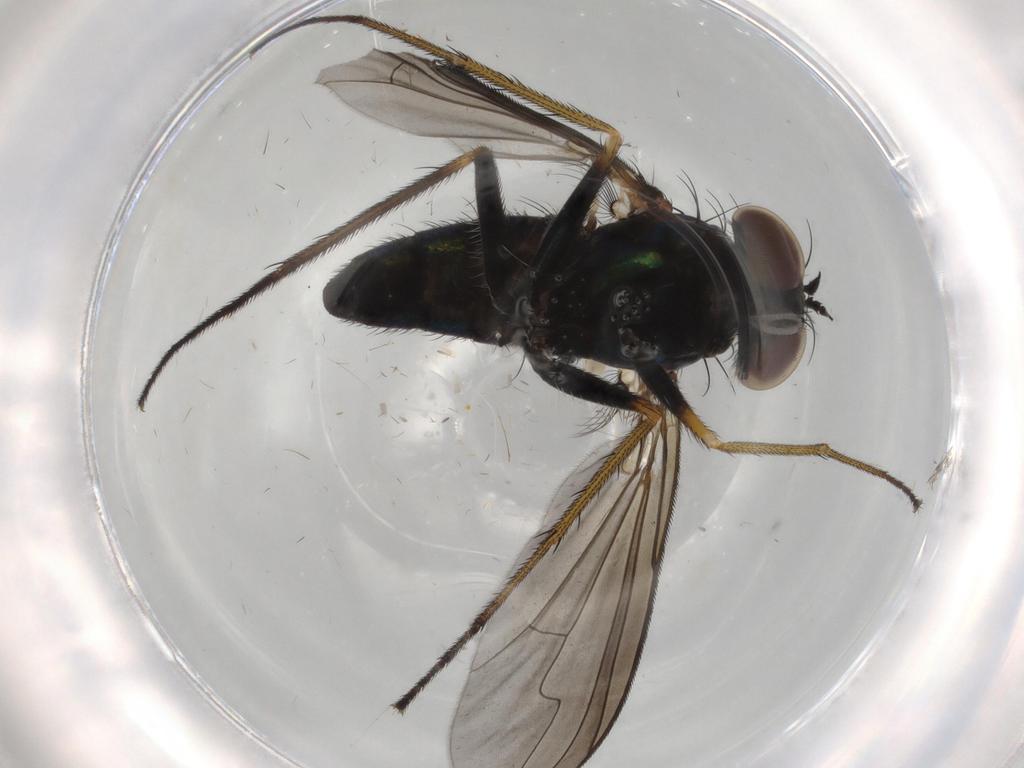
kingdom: Animalia
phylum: Arthropoda
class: Insecta
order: Diptera
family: Dolichopodidae
